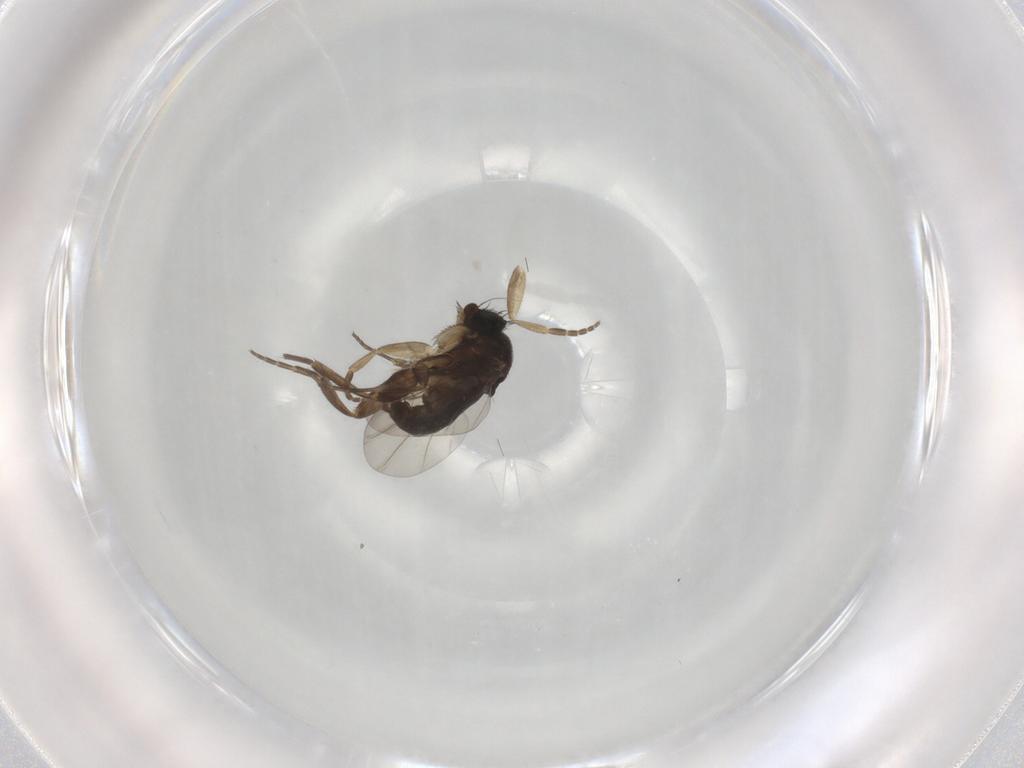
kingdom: Animalia
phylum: Arthropoda
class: Insecta
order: Diptera
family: Phoridae
